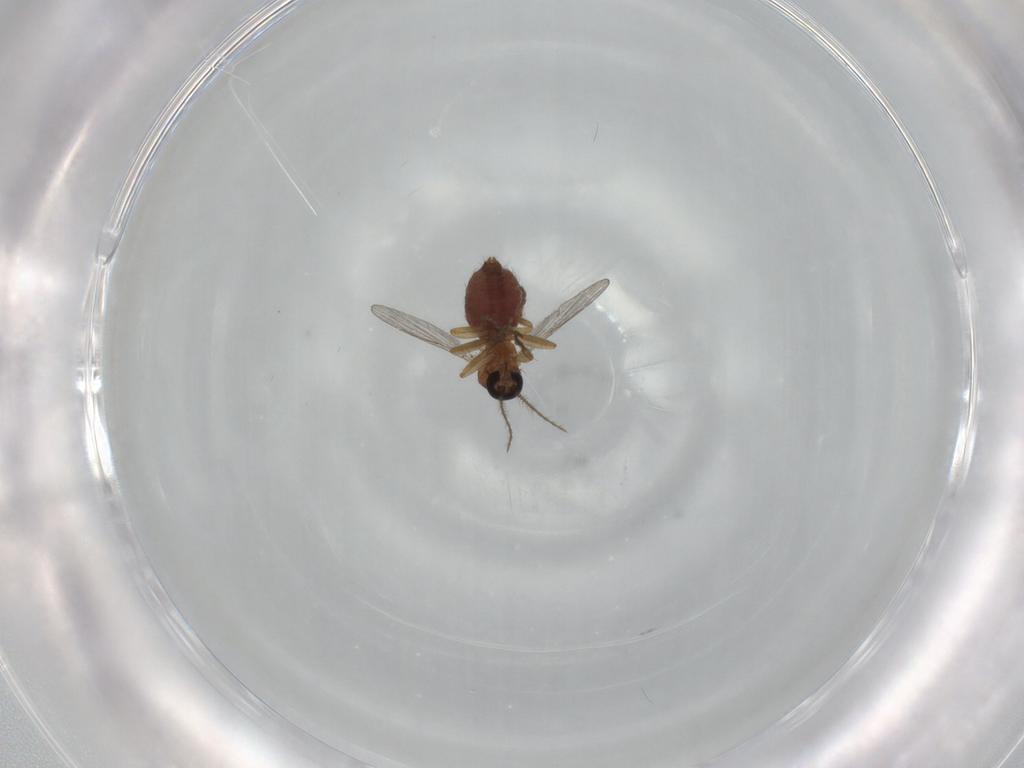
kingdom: Animalia
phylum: Arthropoda
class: Insecta
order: Diptera
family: Ceratopogonidae
